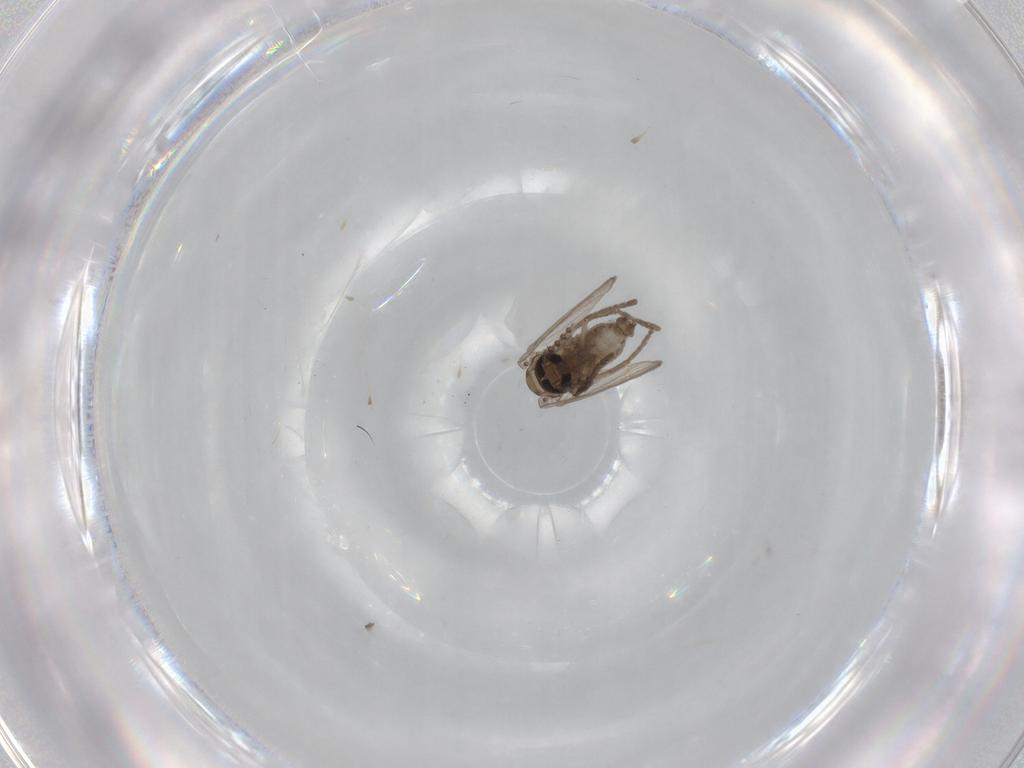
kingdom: Animalia
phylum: Arthropoda
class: Insecta
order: Diptera
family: Psychodidae
